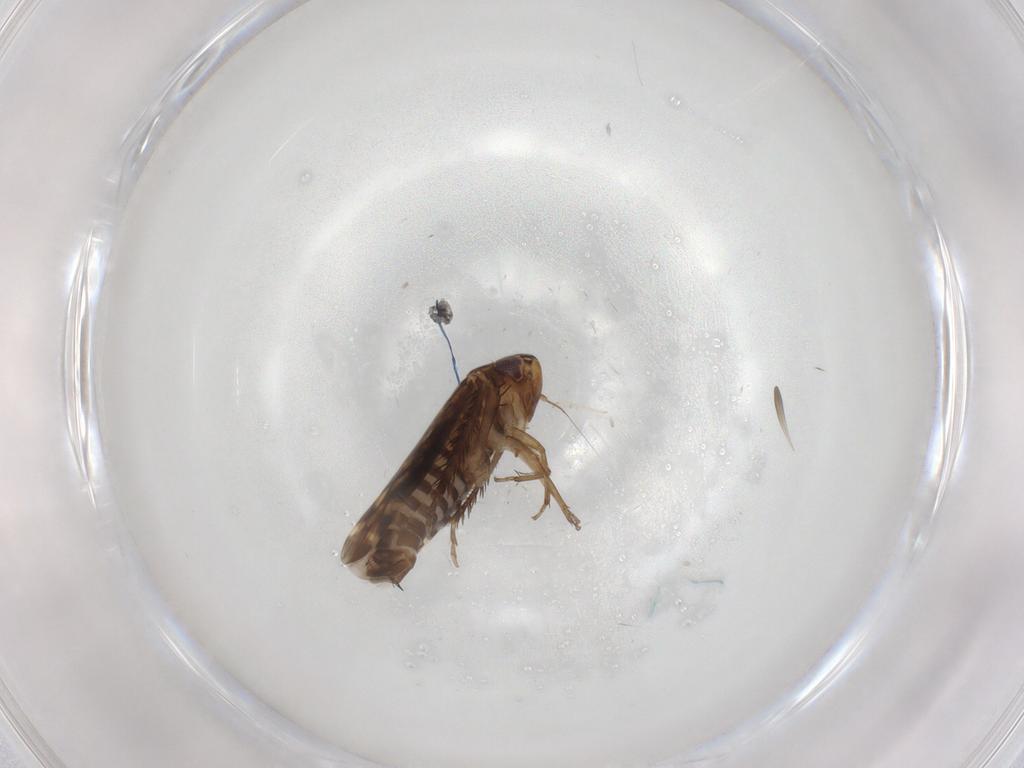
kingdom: Animalia
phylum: Arthropoda
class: Insecta
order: Hemiptera
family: Cicadellidae
